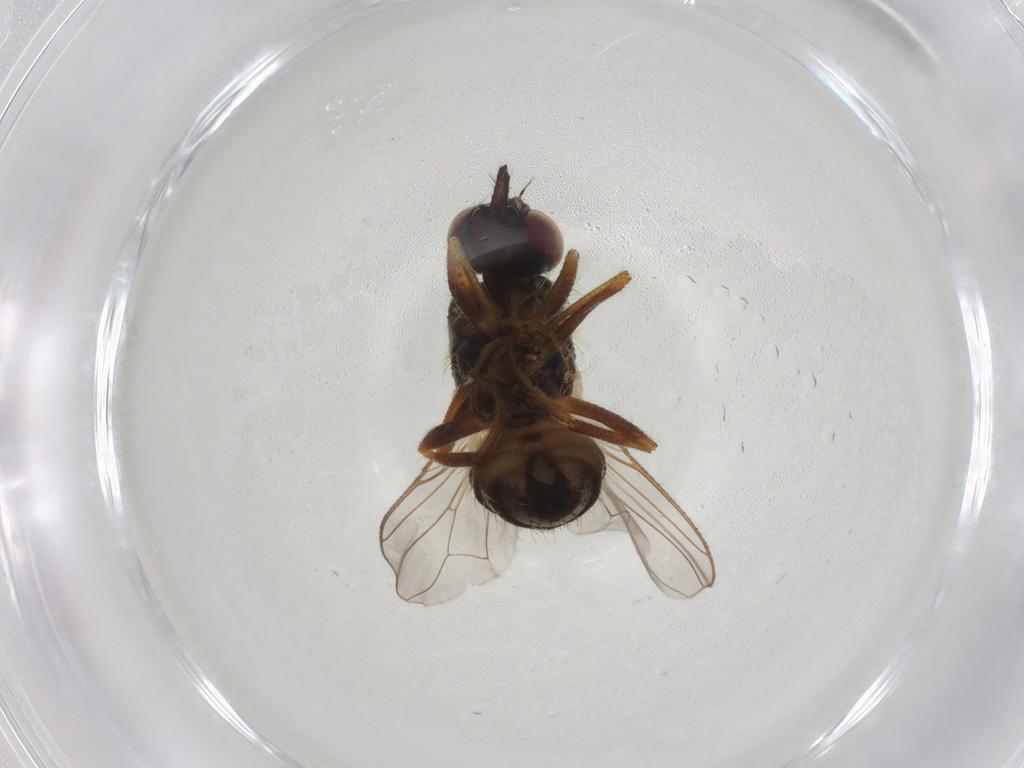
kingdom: Animalia
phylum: Arthropoda
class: Insecta
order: Diptera
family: Muscidae
